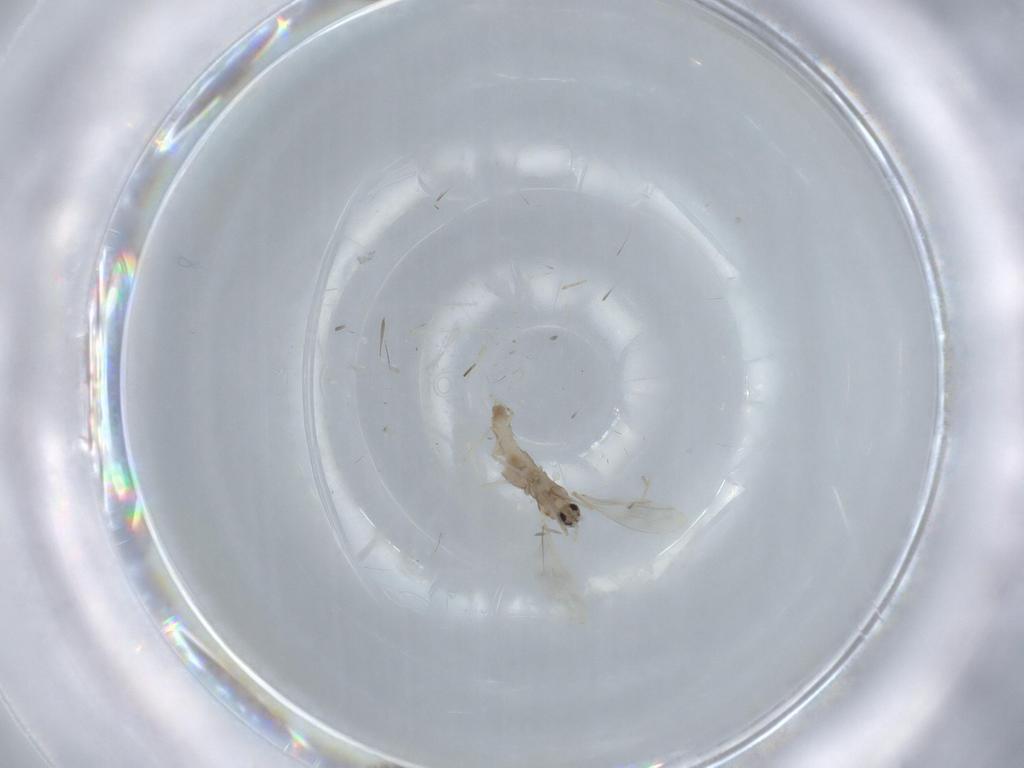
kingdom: Animalia
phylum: Arthropoda
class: Insecta
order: Diptera
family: Cecidomyiidae
